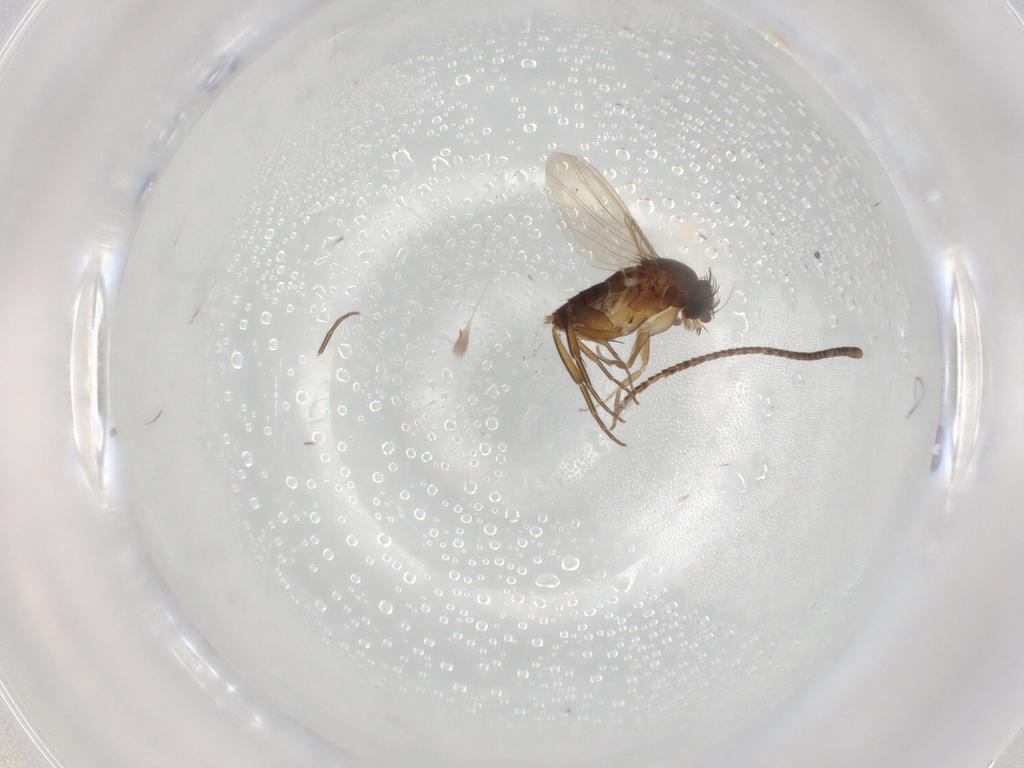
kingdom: Animalia
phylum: Arthropoda
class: Insecta
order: Diptera
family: Phoridae
